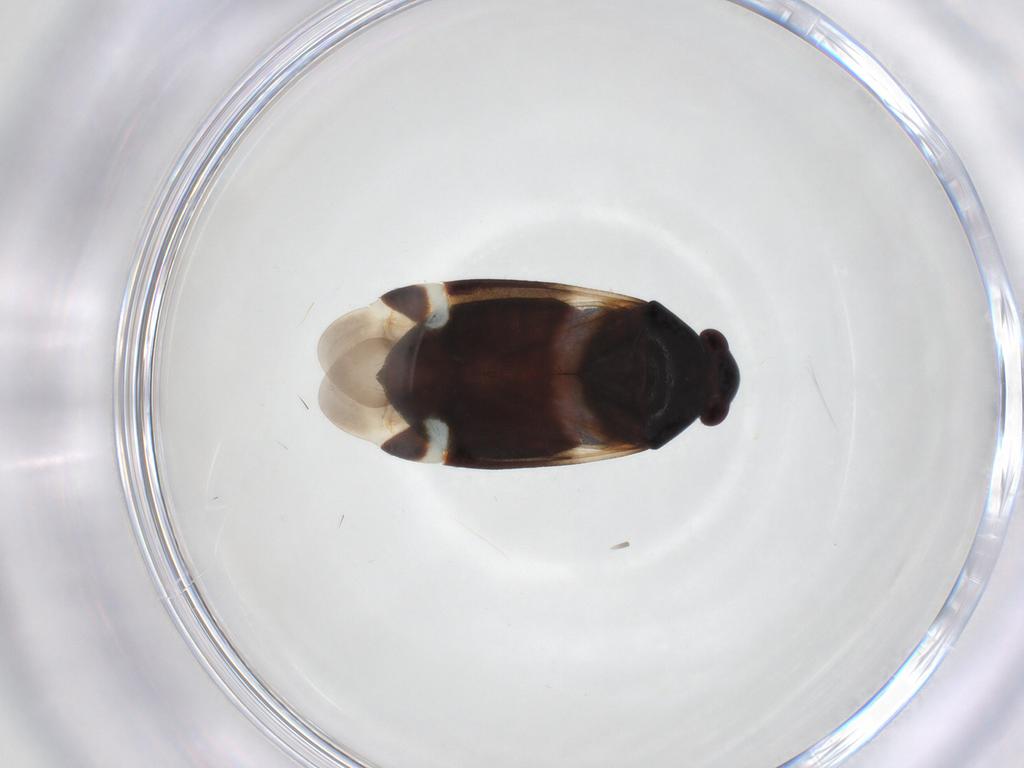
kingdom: Animalia
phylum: Arthropoda
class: Insecta
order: Hemiptera
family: Miridae
